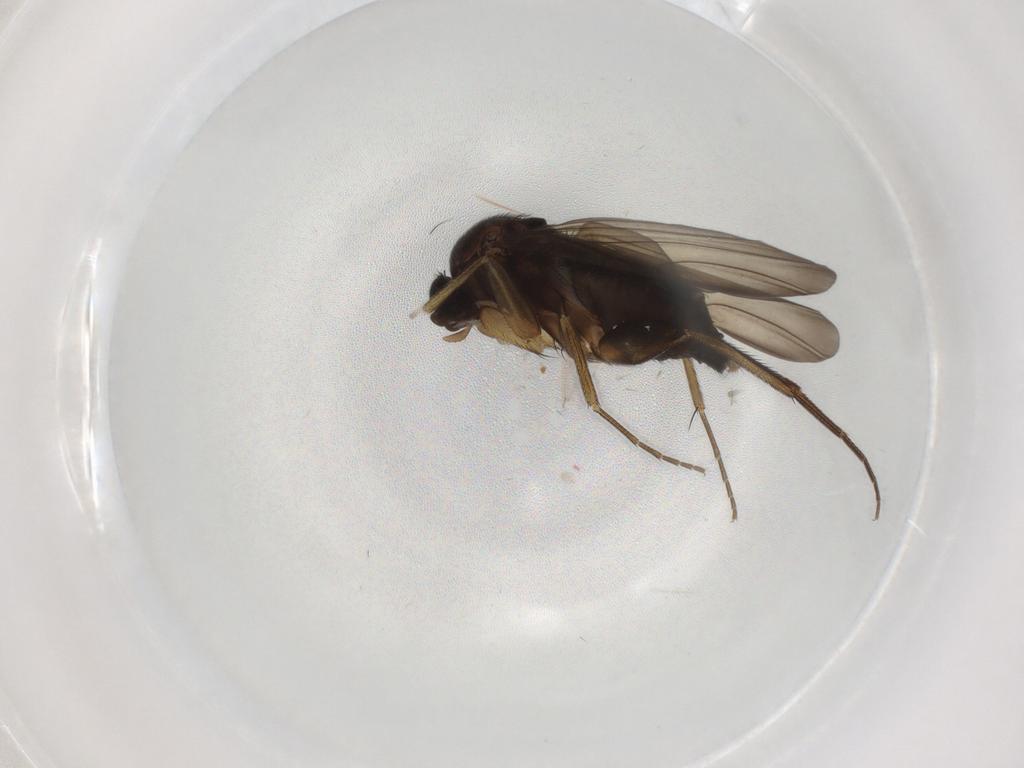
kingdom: Animalia
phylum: Arthropoda
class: Insecta
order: Diptera
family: Phoridae
